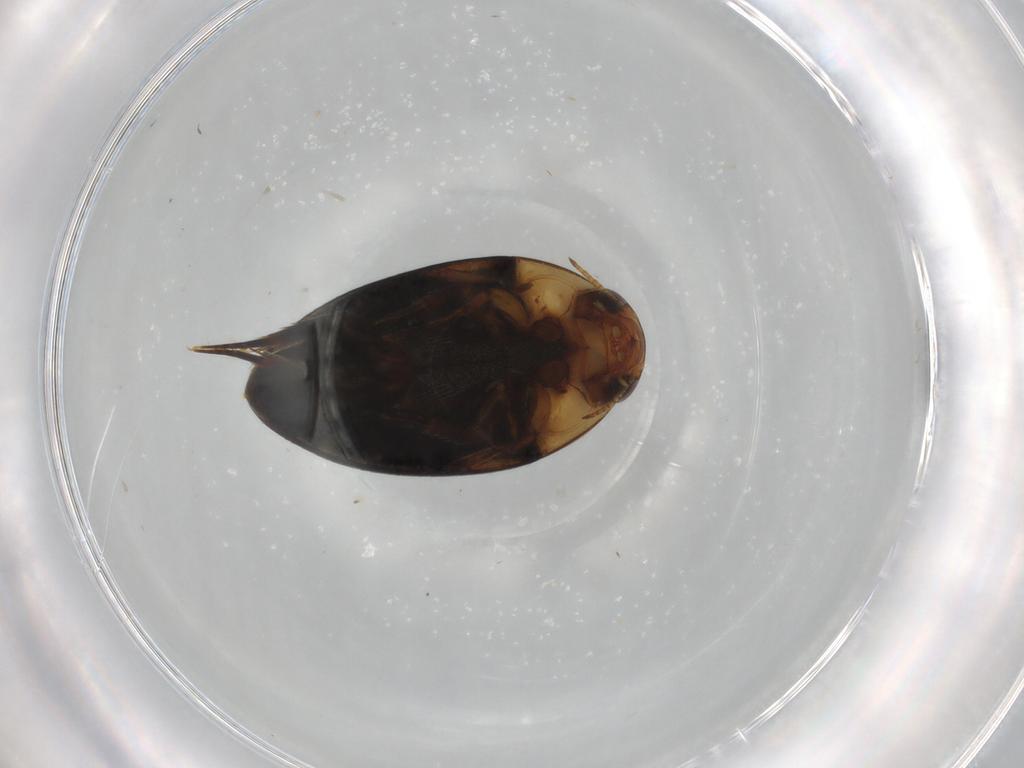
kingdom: Animalia
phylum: Arthropoda
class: Insecta
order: Coleoptera
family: Noteridae
